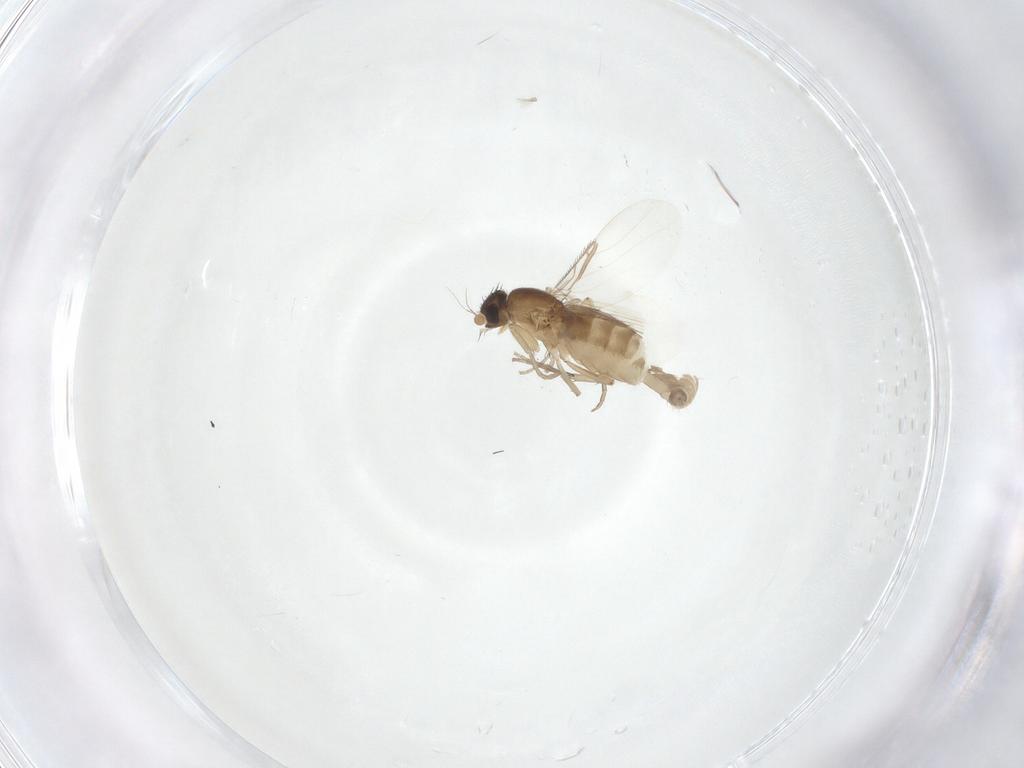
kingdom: Animalia
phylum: Arthropoda
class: Insecta
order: Diptera
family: Phoridae
